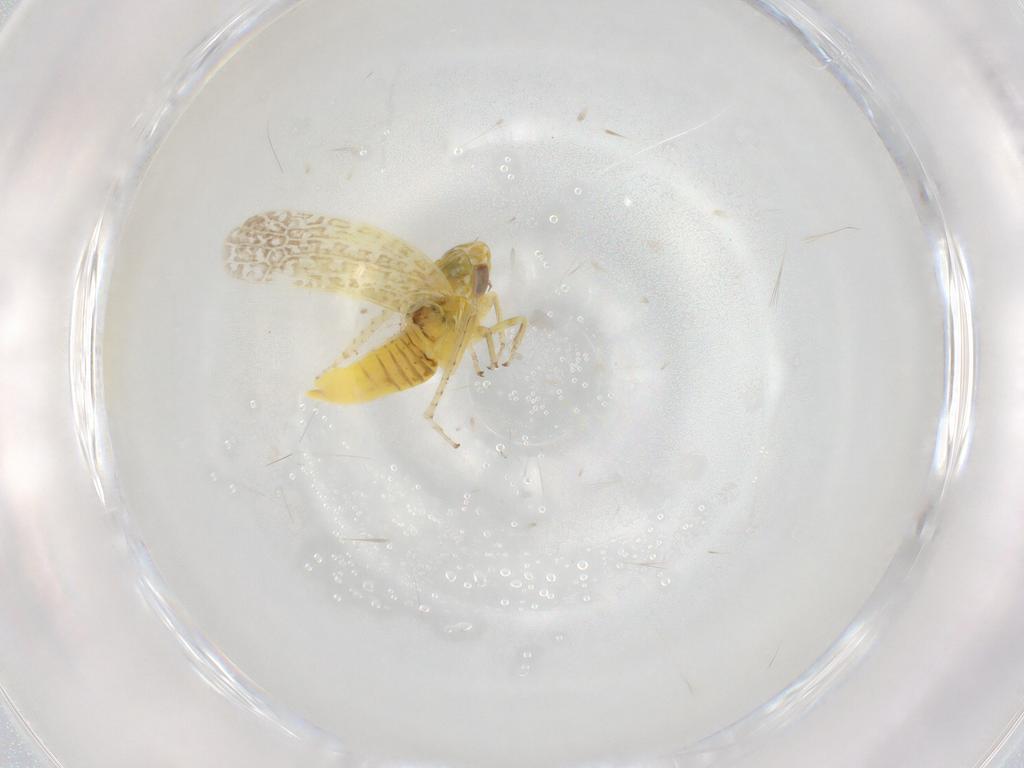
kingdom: Animalia
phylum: Arthropoda
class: Insecta
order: Hemiptera
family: Cicadellidae
